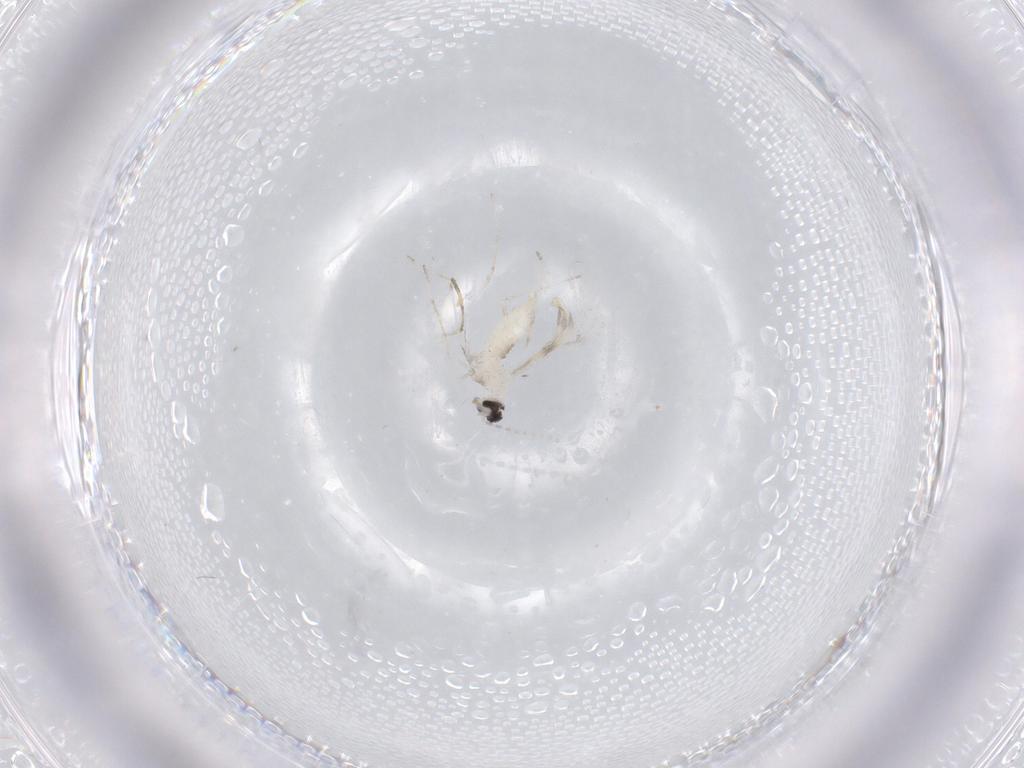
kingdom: Animalia
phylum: Arthropoda
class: Insecta
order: Diptera
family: Cecidomyiidae
